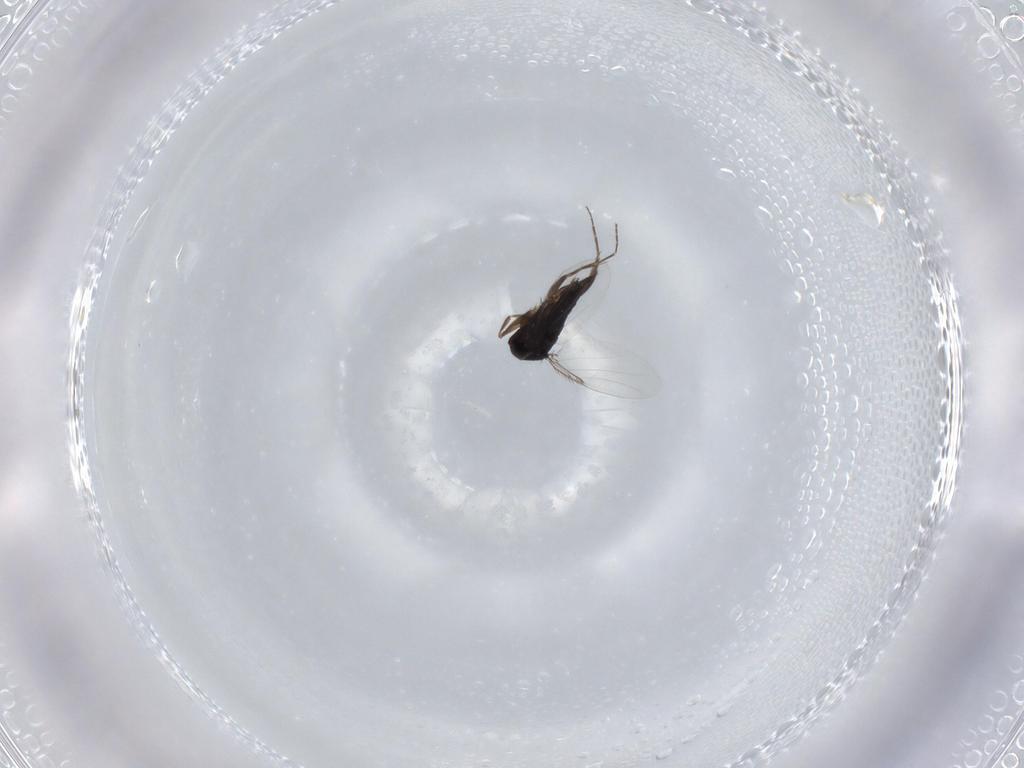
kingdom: Animalia
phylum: Arthropoda
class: Insecta
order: Diptera
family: Phoridae
